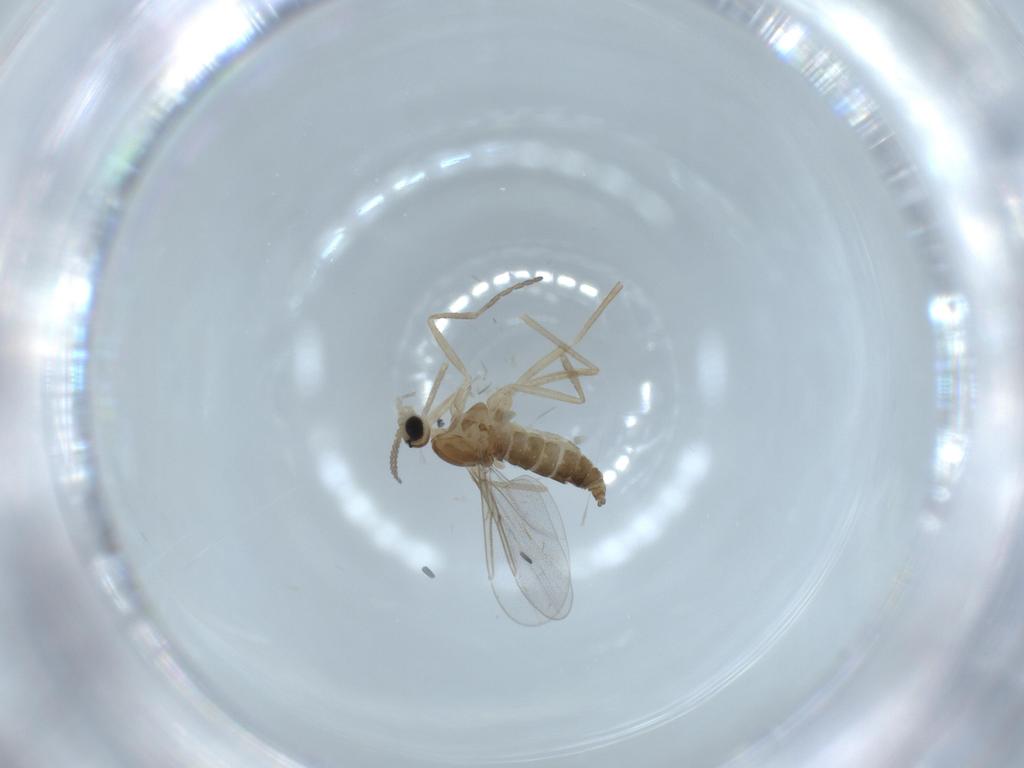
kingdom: Animalia
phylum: Arthropoda
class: Insecta
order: Diptera
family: Cecidomyiidae
